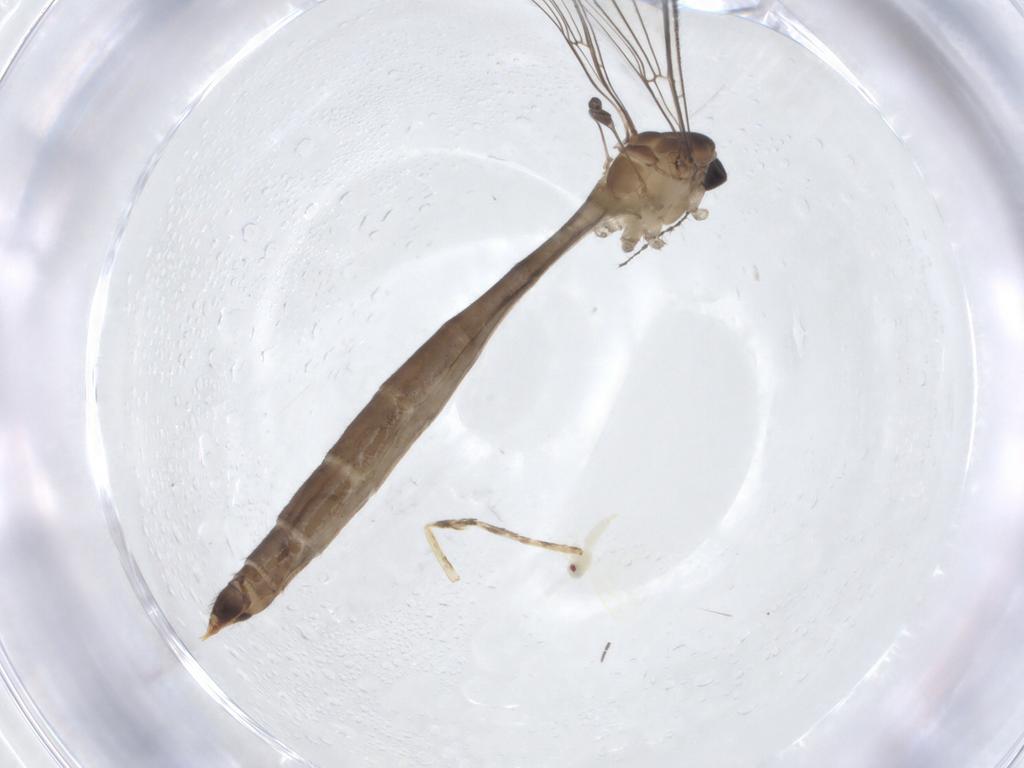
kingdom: Animalia
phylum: Arthropoda
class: Insecta
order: Diptera
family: Limoniidae
